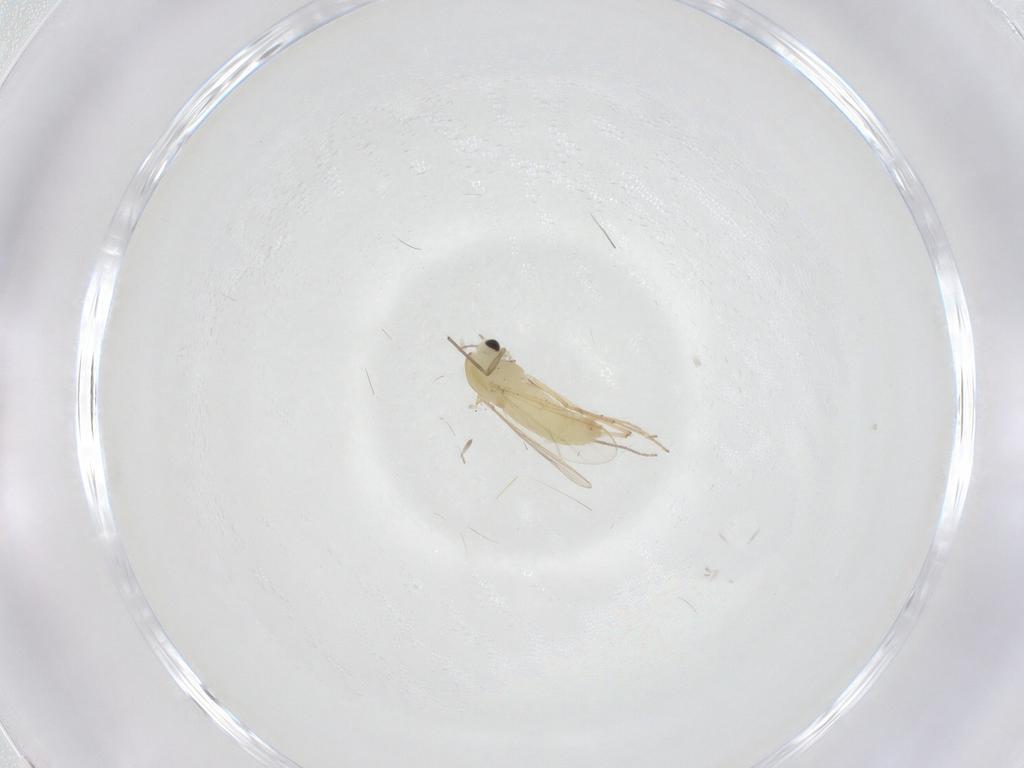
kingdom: Animalia
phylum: Arthropoda
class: Insecta
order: Diptera
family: Chironomidae
